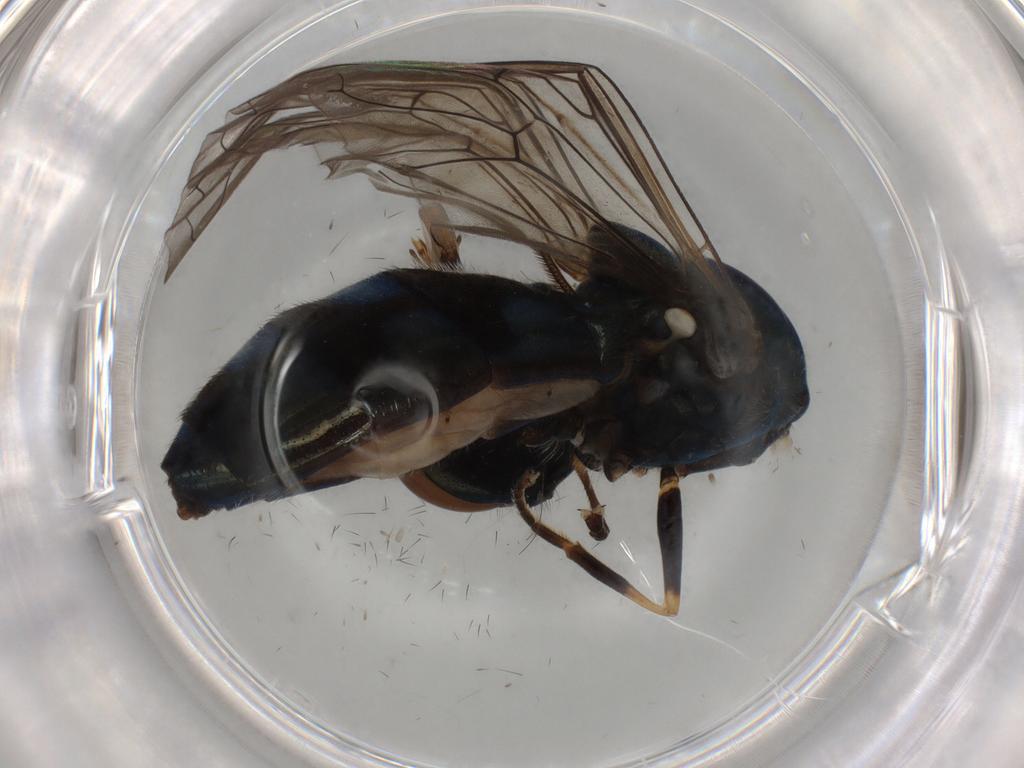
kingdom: Animalia
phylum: Arthropoda
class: Insecta
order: Diptera
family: Syrphidae
